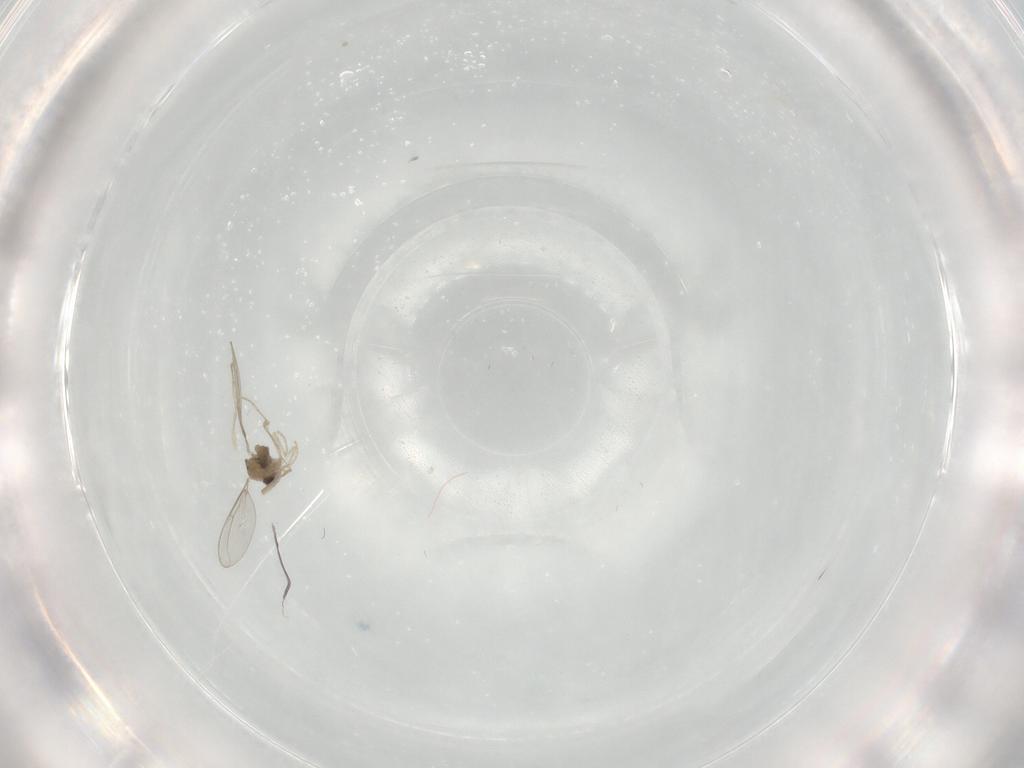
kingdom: Animalia
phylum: Arthropoda
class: Insecta
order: Diptera
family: Cecidomyiidae
